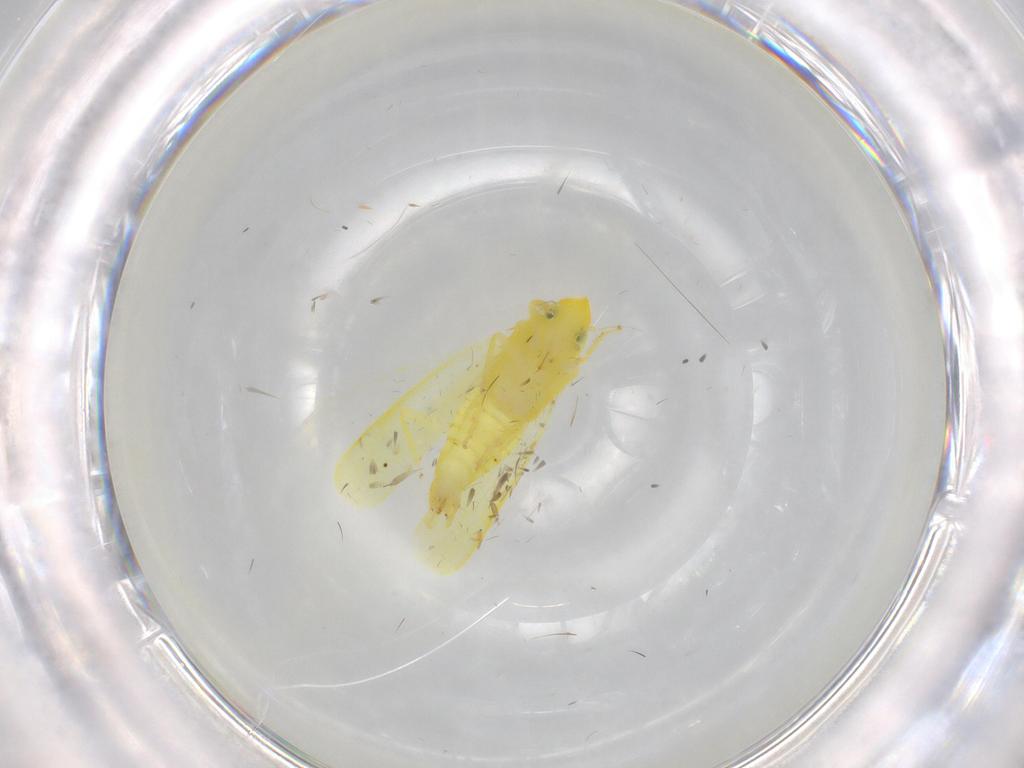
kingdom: Animalia
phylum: Arthropoda
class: Insecta
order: Hemiptera
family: Cicadellidae
